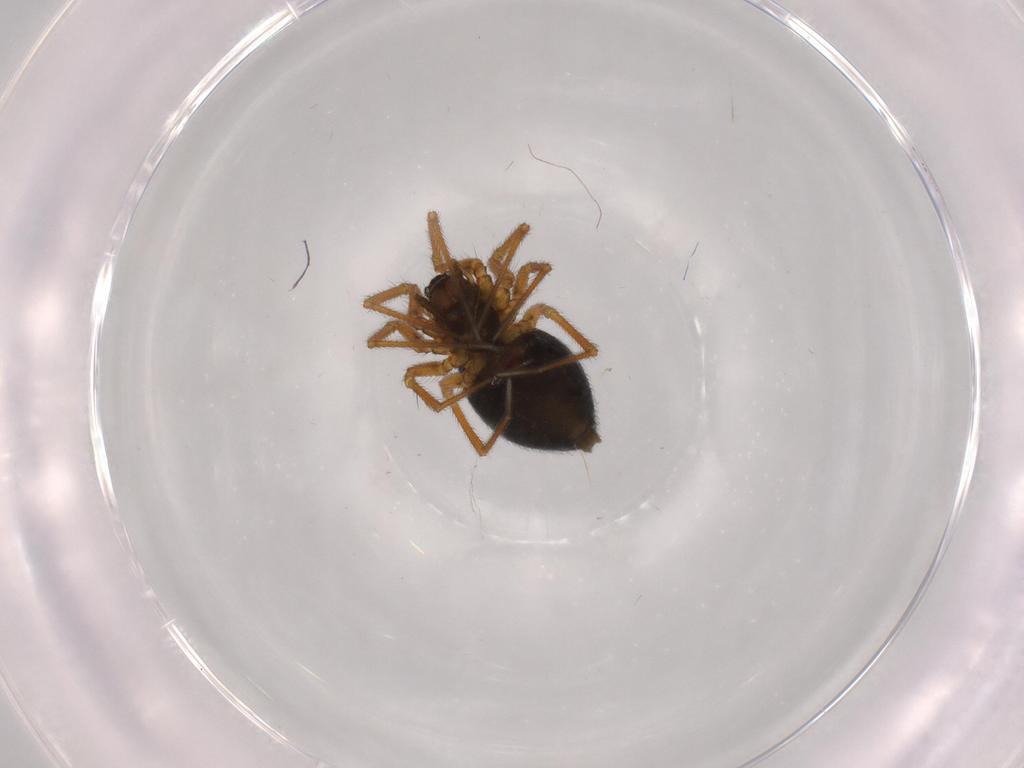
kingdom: Animalia
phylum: Arthropoda
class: Arachnida
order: Araneae
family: Linyphiidae
